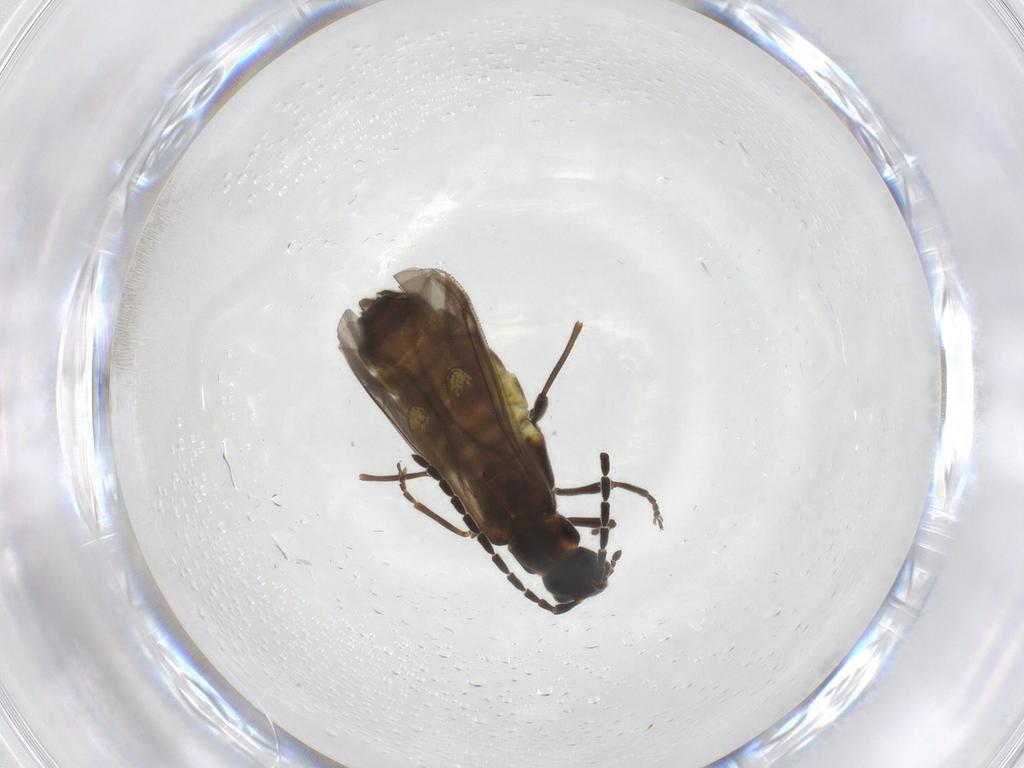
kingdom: Animalia
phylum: Arthropoda
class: Insecta
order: Coleoptera
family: Cantharidae
